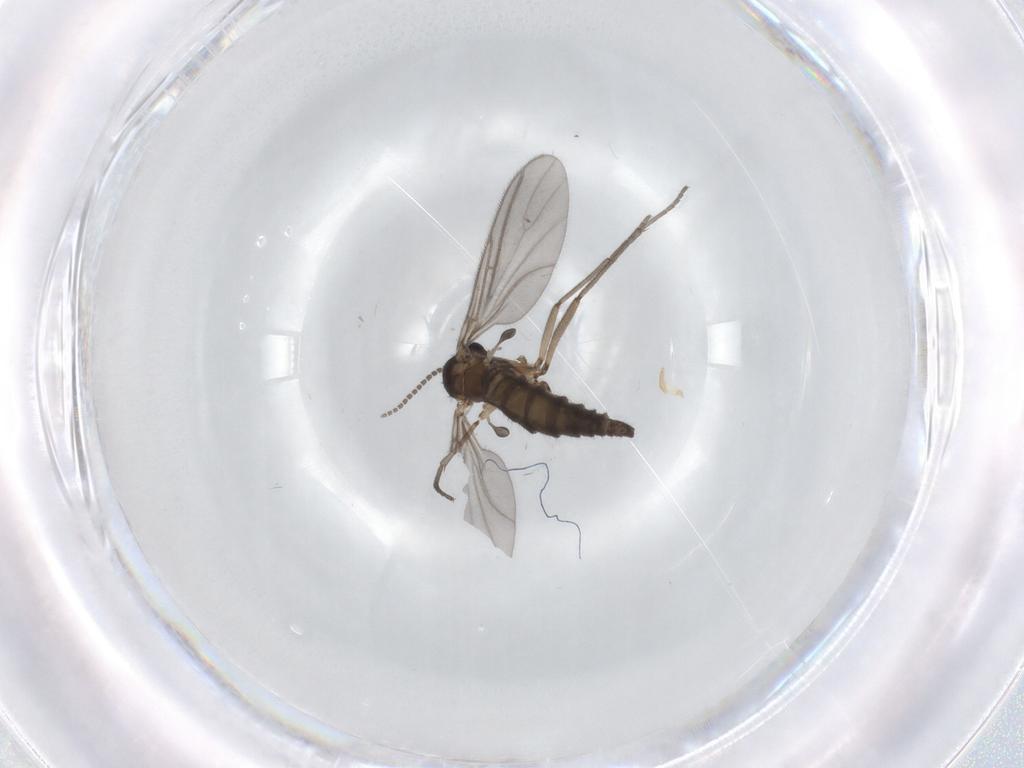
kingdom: Animalia
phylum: Arthropoda
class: Insecta
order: Diptera
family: Sciaridae
